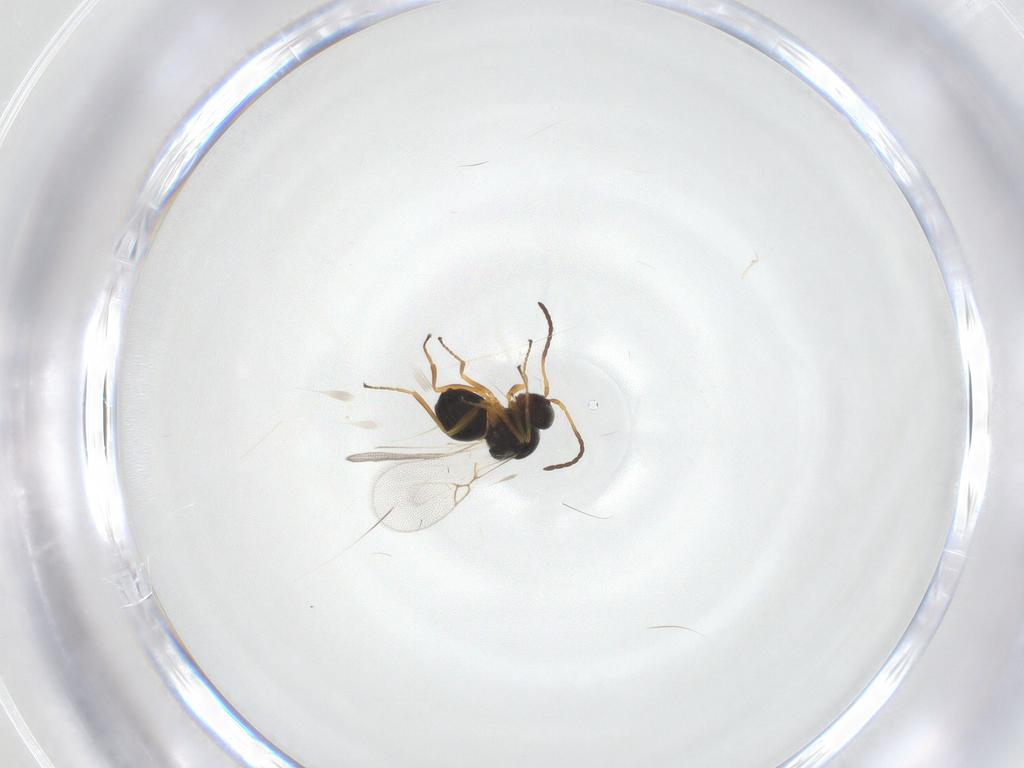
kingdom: Animalia
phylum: Arthropoda
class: Insecta
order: Hymenoptera
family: Figitidae
